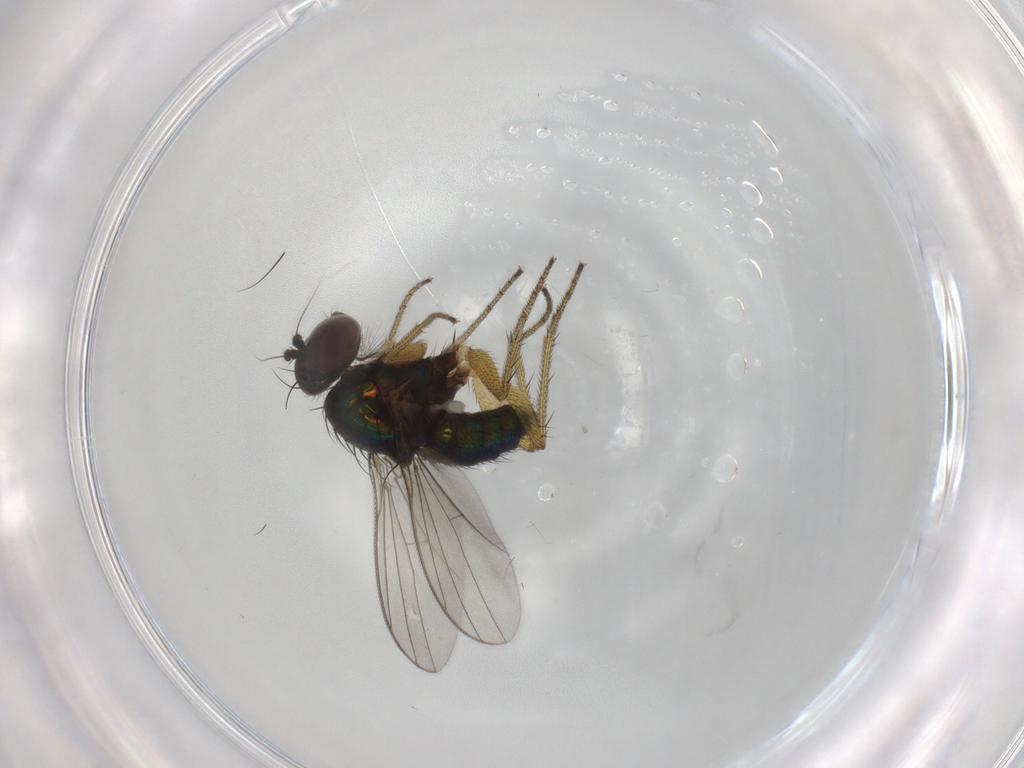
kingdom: Animalia
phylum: Arthropoda
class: Insecta
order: Diptera
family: Dolichopodidae
